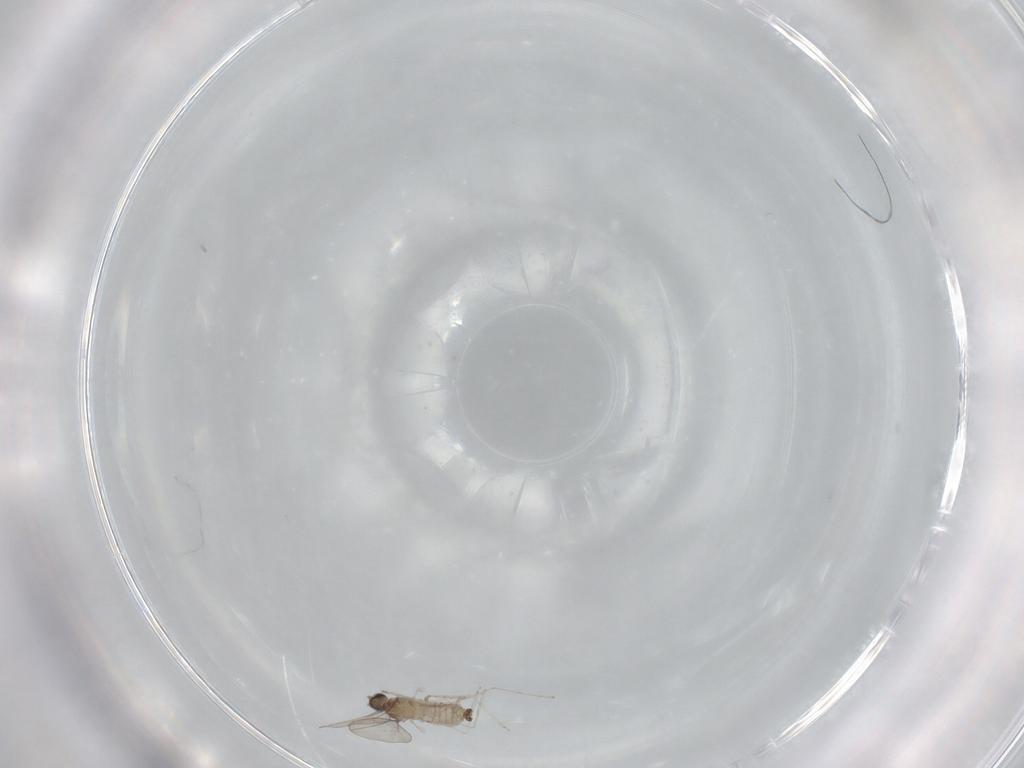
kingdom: Animalia
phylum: Arthropoda
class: Insecta
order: Diptera
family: Cecidomyiidae
